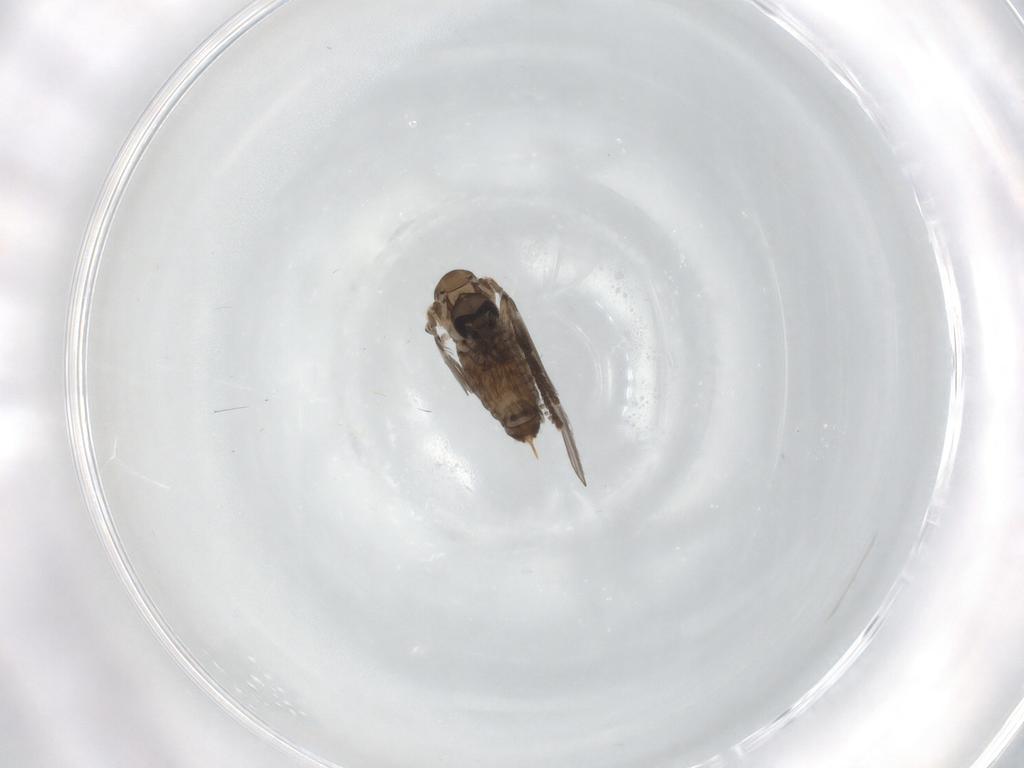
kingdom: Animalia
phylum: Arthropoda
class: Insecta
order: Diptera
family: Psychodidae
